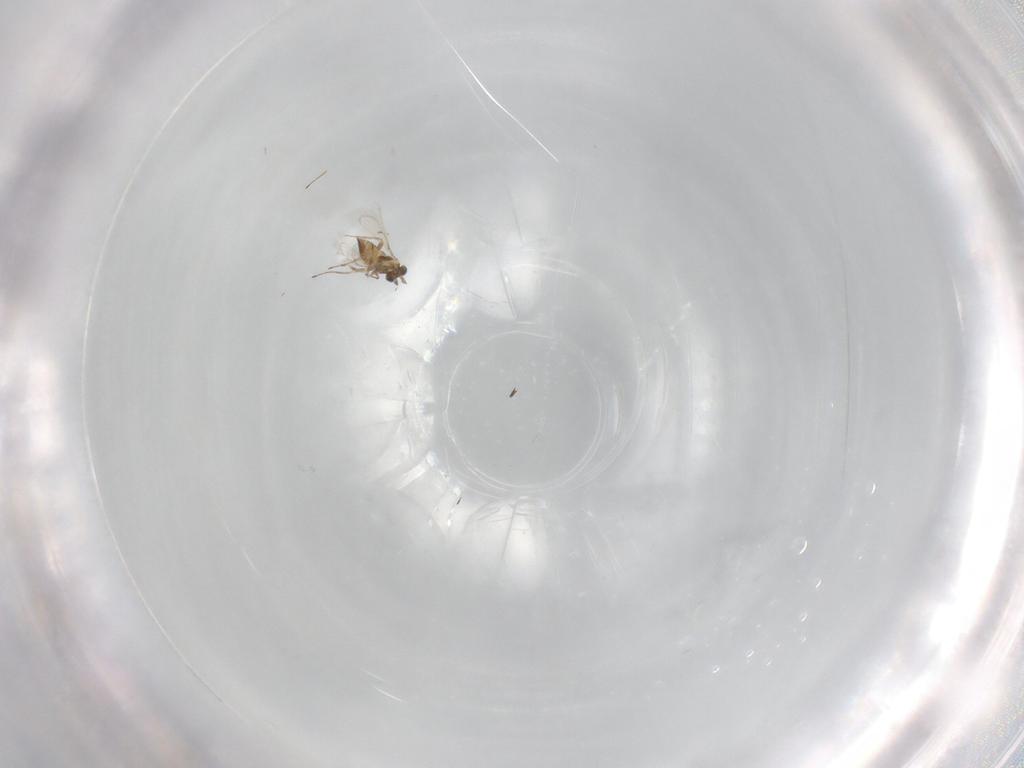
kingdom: Animalia
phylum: Arthropoda
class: Insecta
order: Hymenoptera
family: Trichogrammatidae
